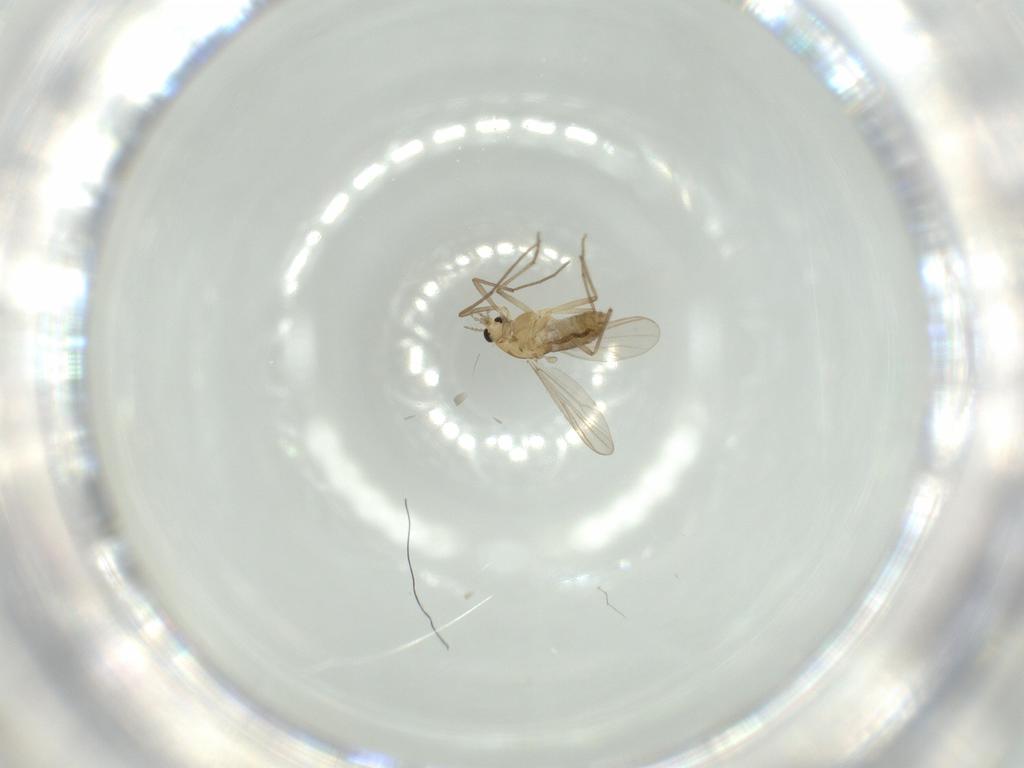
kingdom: Animalia
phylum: Arthropoda
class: Insecta
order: Diptera
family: Chironomidae
